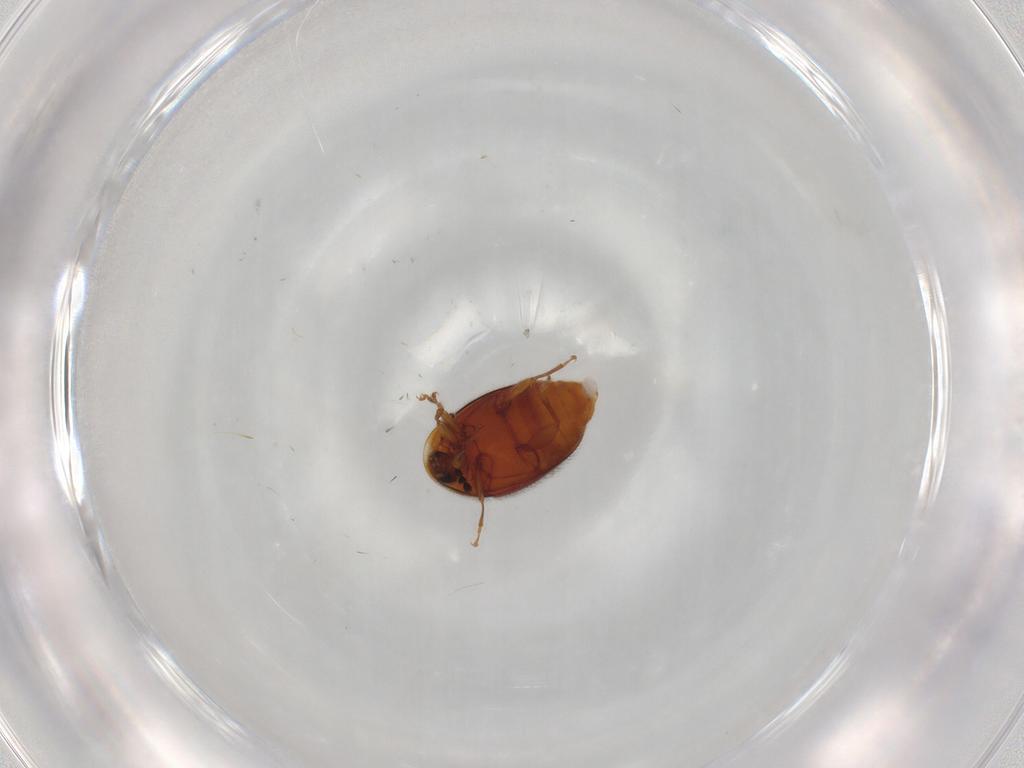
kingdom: Animalia
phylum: Arthropoda
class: Insecta
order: Coleoptera
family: Corylophidae
